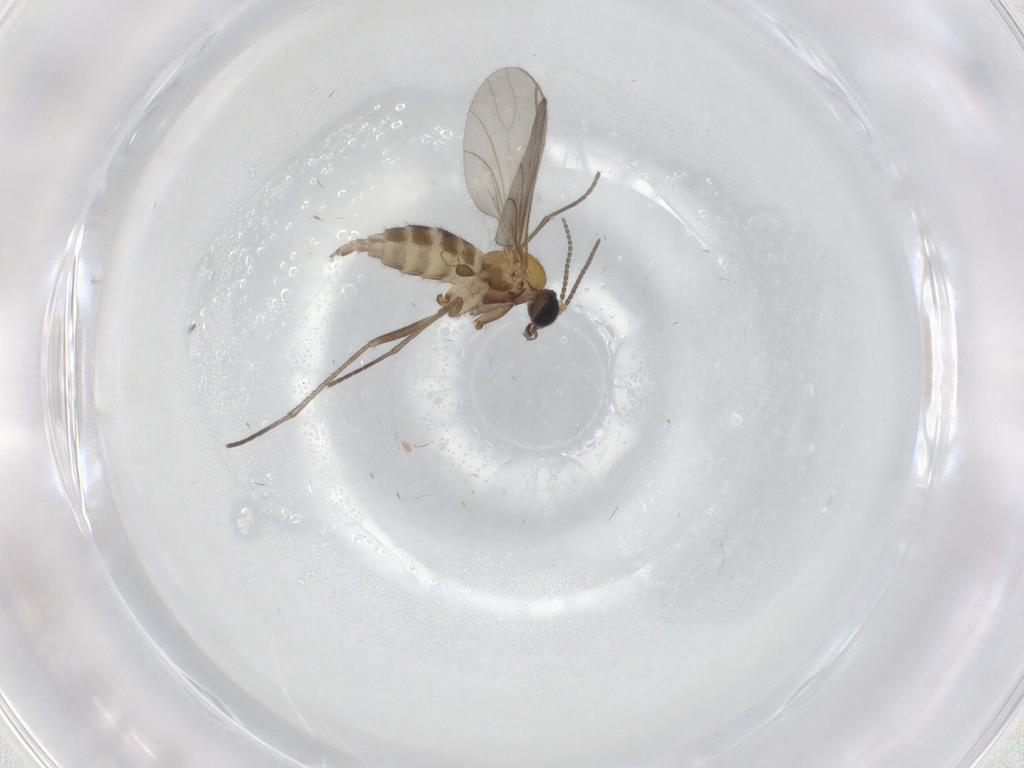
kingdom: Animalia
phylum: Arthropoda
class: Insecta
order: Diptera
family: Sciaridae
